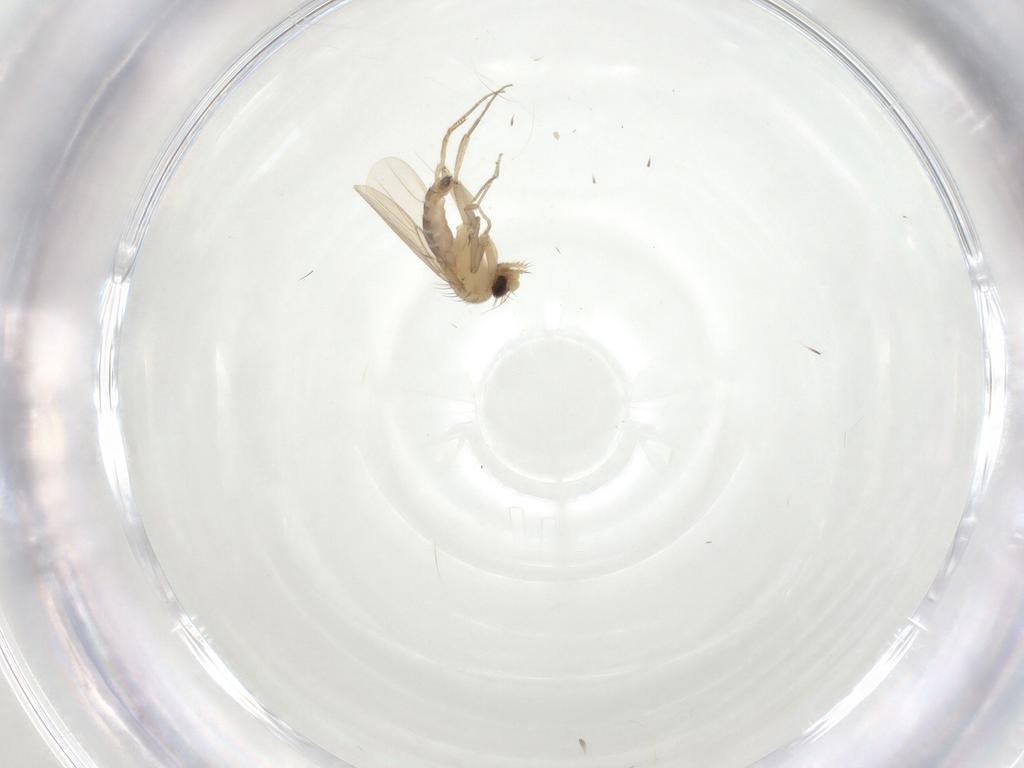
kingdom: Animalia
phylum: Arthropoda
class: Insecta
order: Diptera
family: Phoridae
